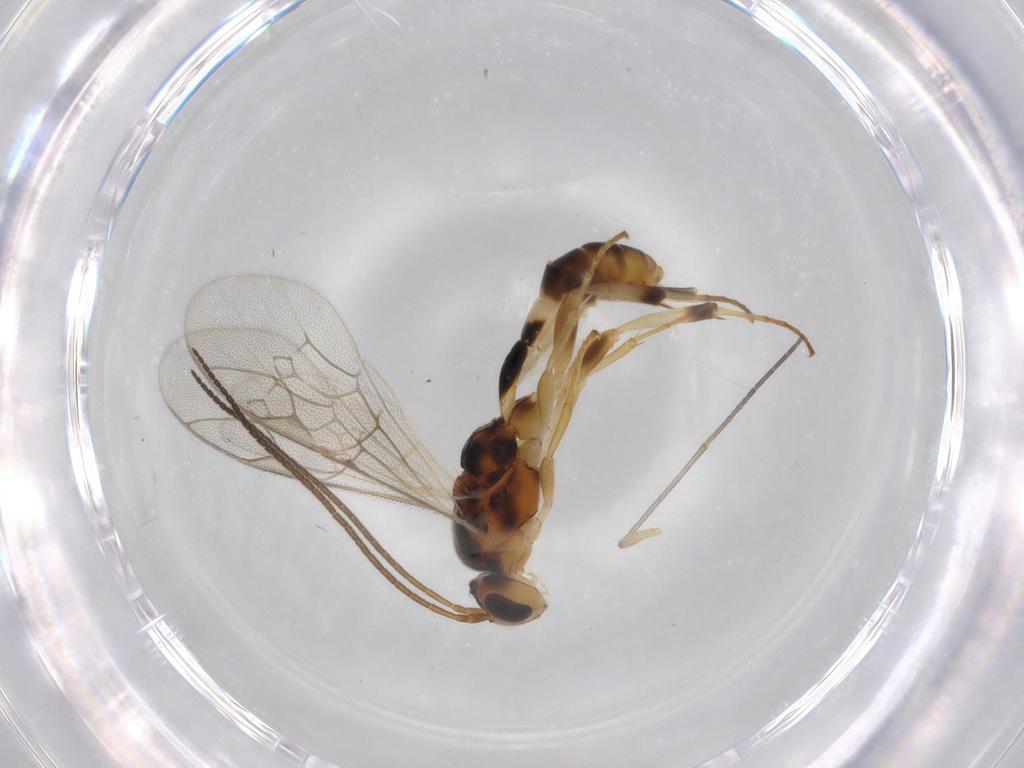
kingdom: Animalia
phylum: Arthropoda
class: Insecta
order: Hymenoptera
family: Ichneumonidae
